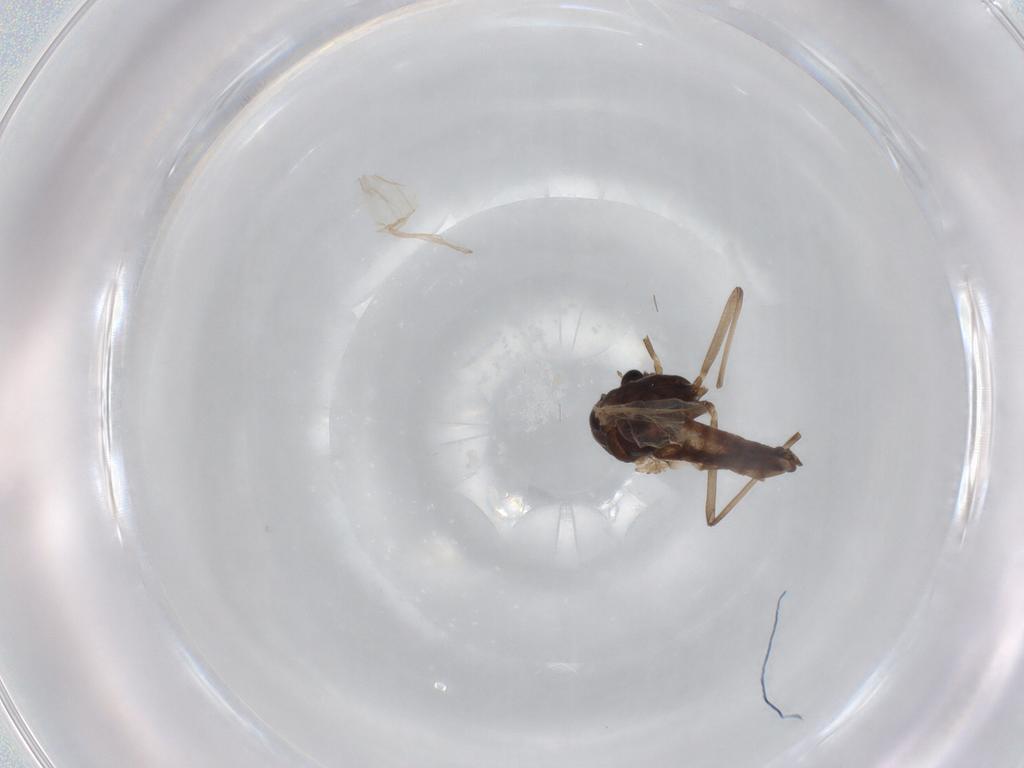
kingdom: Animalia
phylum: Arthropoda
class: Insecta
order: Diptera
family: Chironomidae
